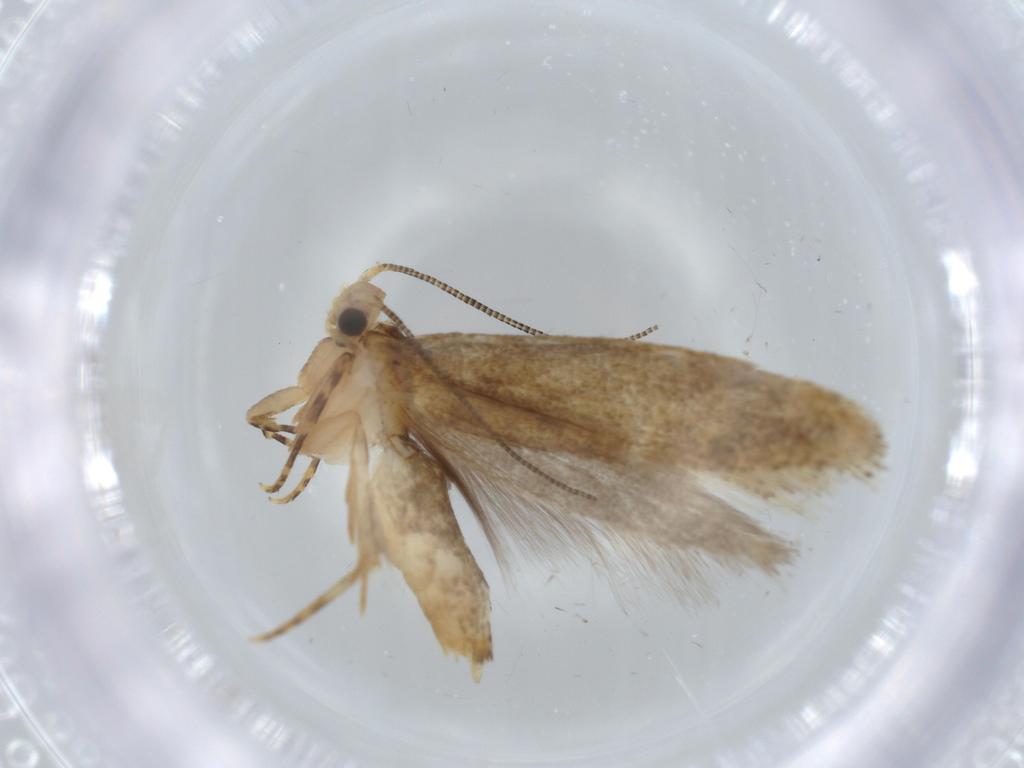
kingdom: Animalia
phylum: Arthropoda
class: Insecta
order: Lepidoptera
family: Tineidae
